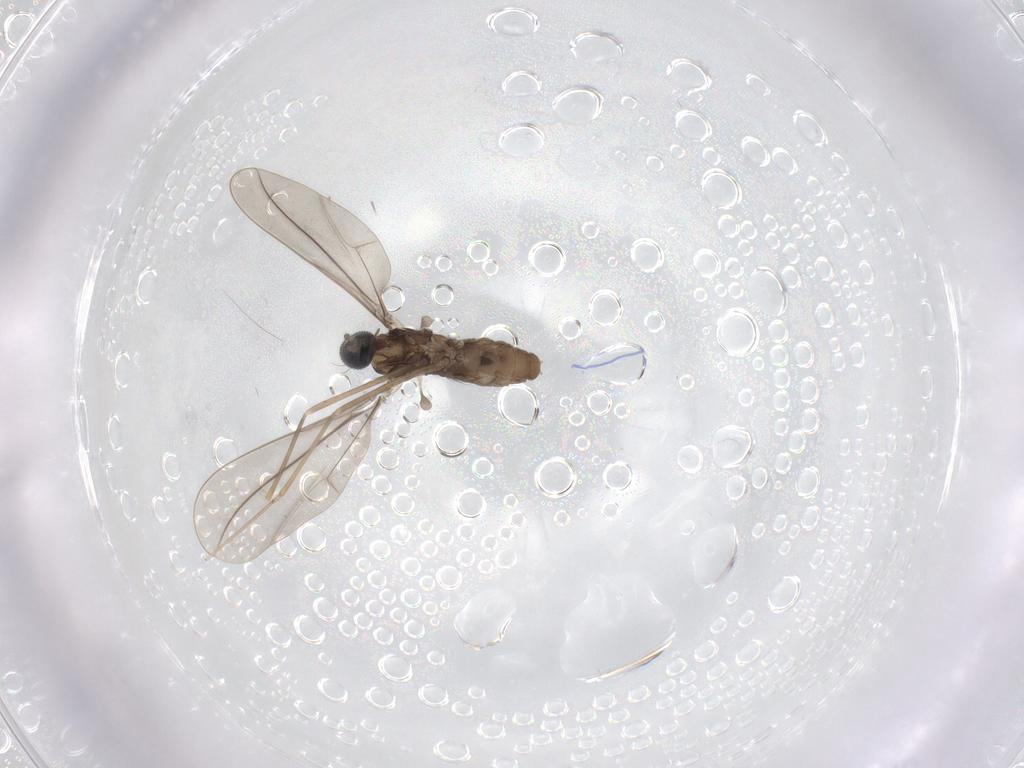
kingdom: Animalia
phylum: Arthropoda
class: Insecta
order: Diptera
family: Cecidomyiidae
